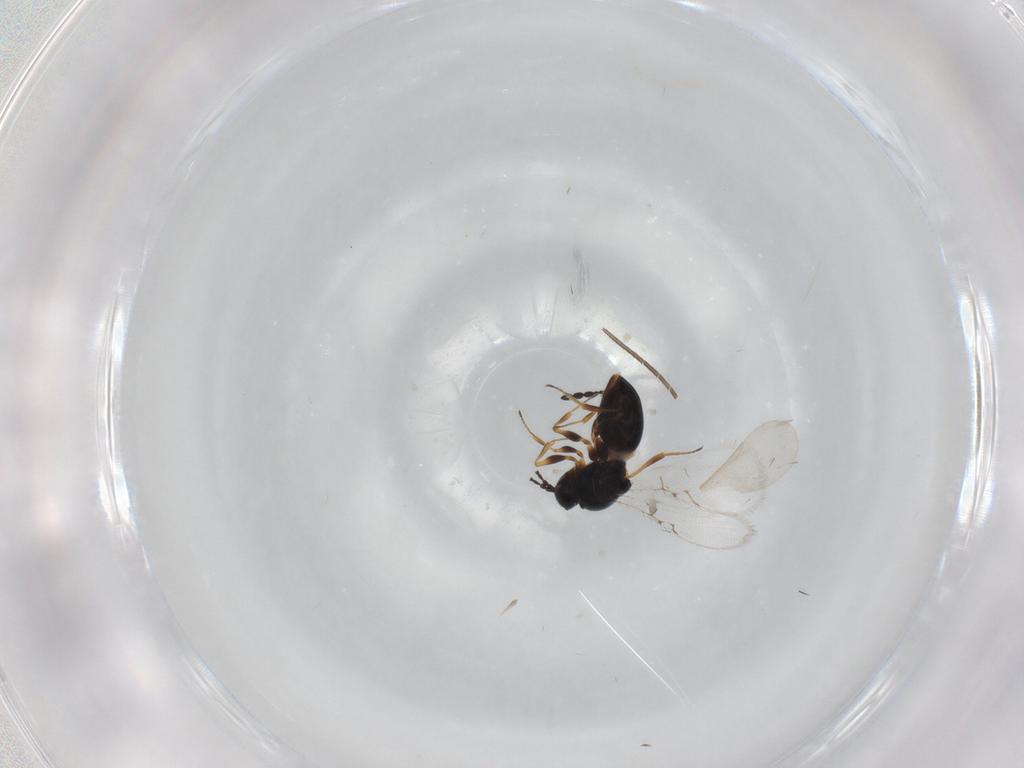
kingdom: Animalia
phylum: Arthropoda
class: Insecta
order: Hymenoptera
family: Figitidae
